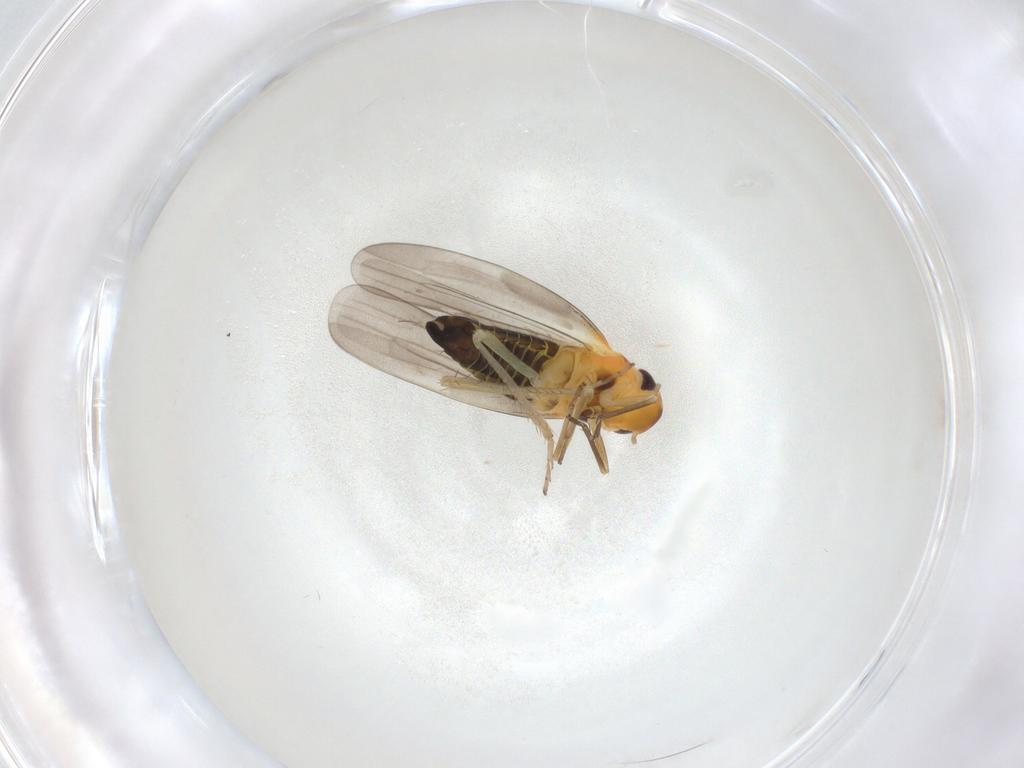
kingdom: Animalia
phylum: Arthropoda
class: Insecta
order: Hemiptera
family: Cicadellidae
